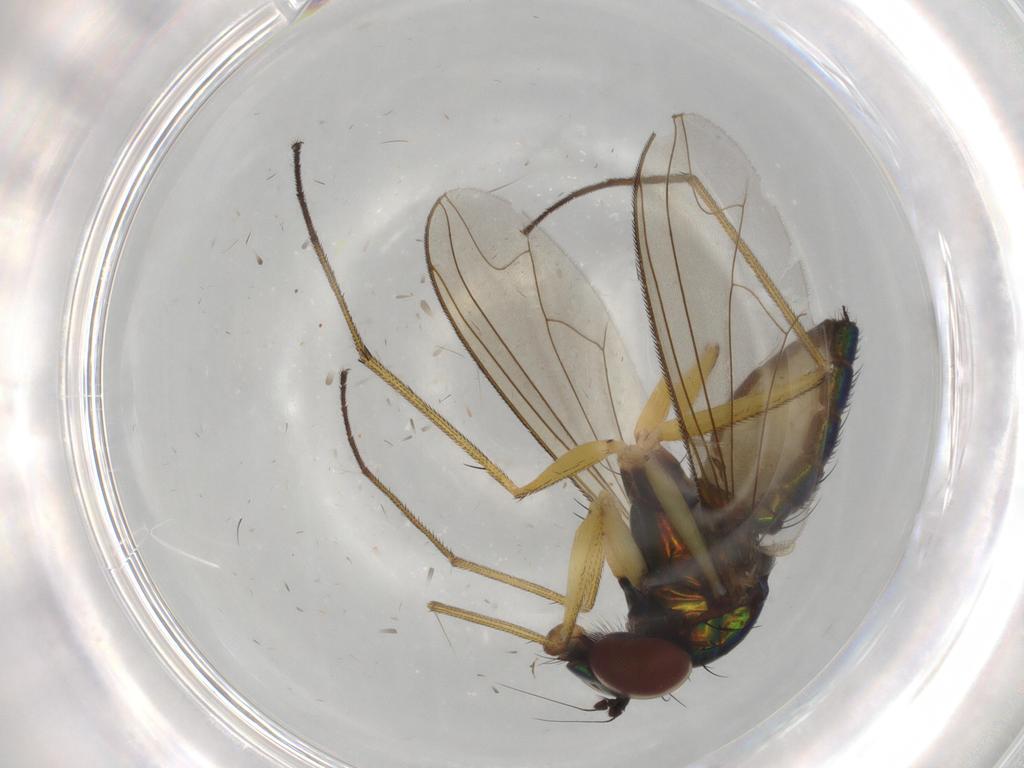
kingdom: Animalia
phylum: Arthropoda
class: Insecta
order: Diptera
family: Dolichopodidae
